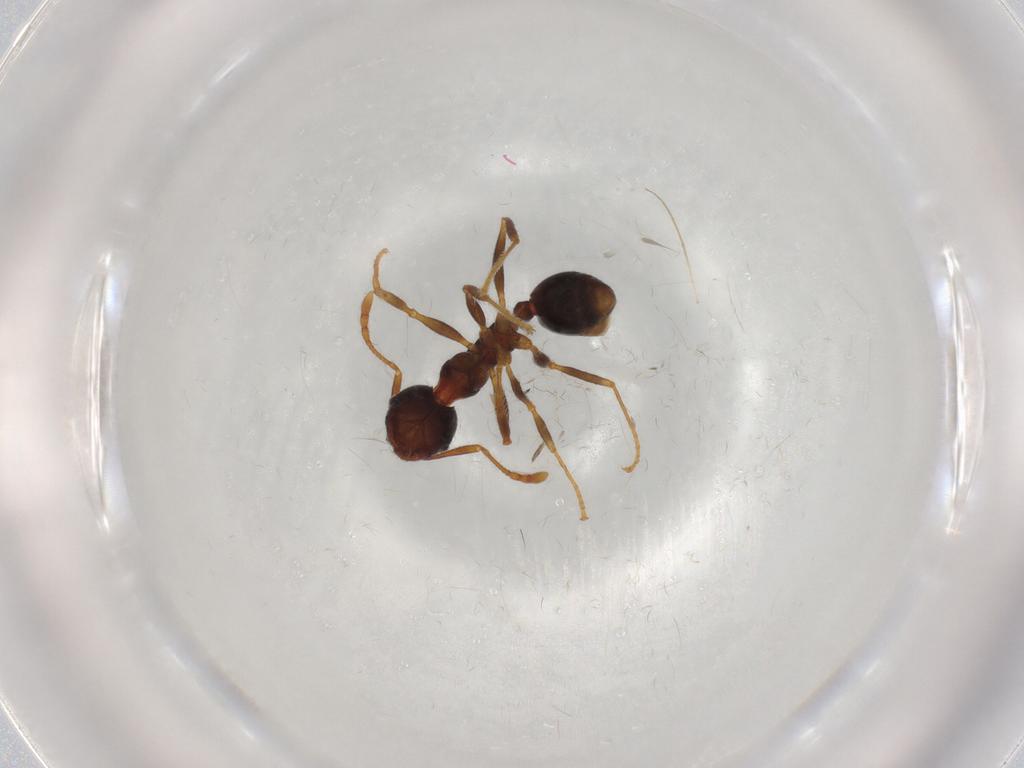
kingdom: Animalia
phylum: Arthropoda
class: Insecta
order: Hymenoptera
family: Formicidae
